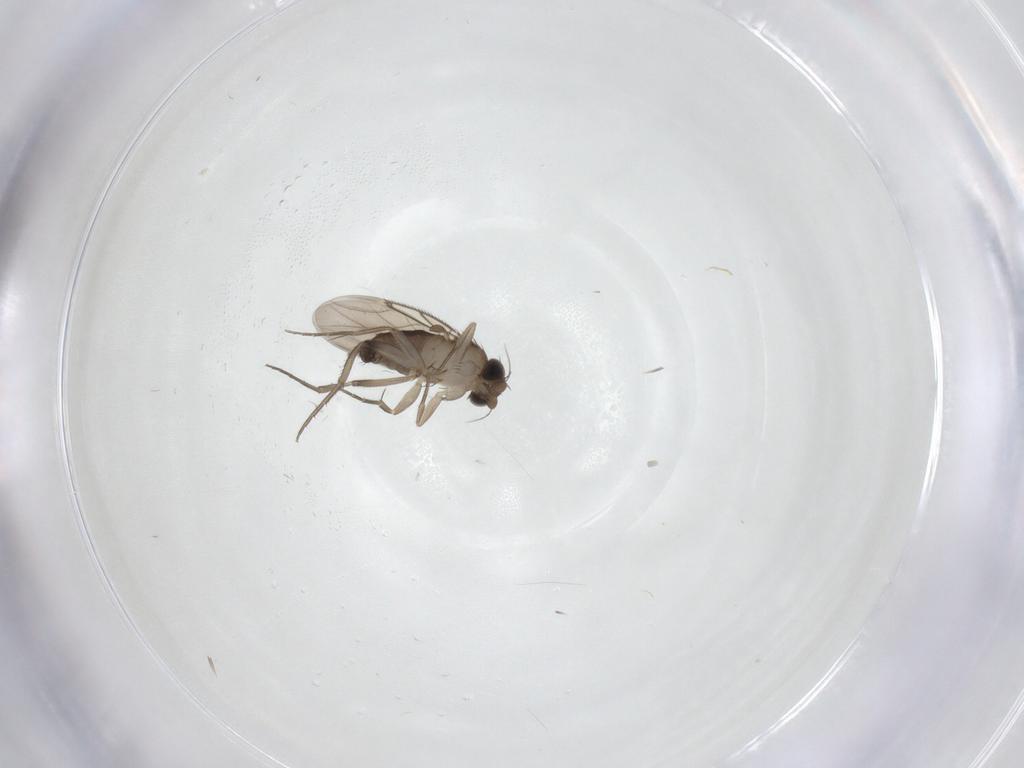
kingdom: Animalia
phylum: Arthropoda
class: Insecta
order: Diptera
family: Phoridae
